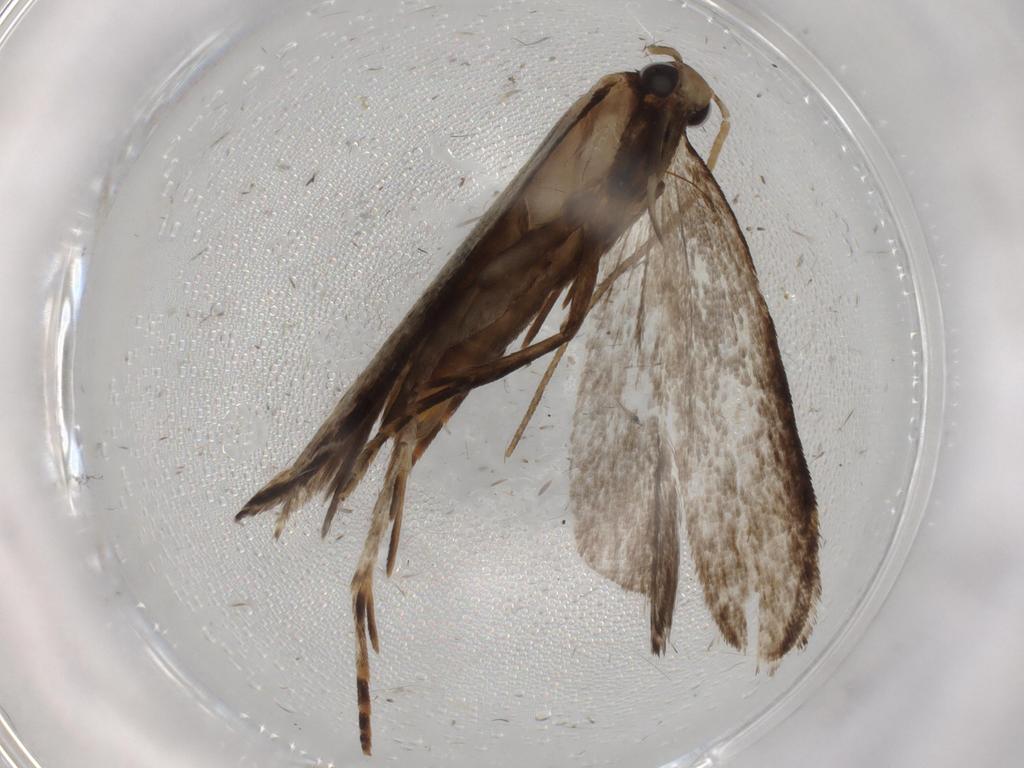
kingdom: Animalia
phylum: Arthropoda
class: Insecta
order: Lepidoptera
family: Gelechiidae
